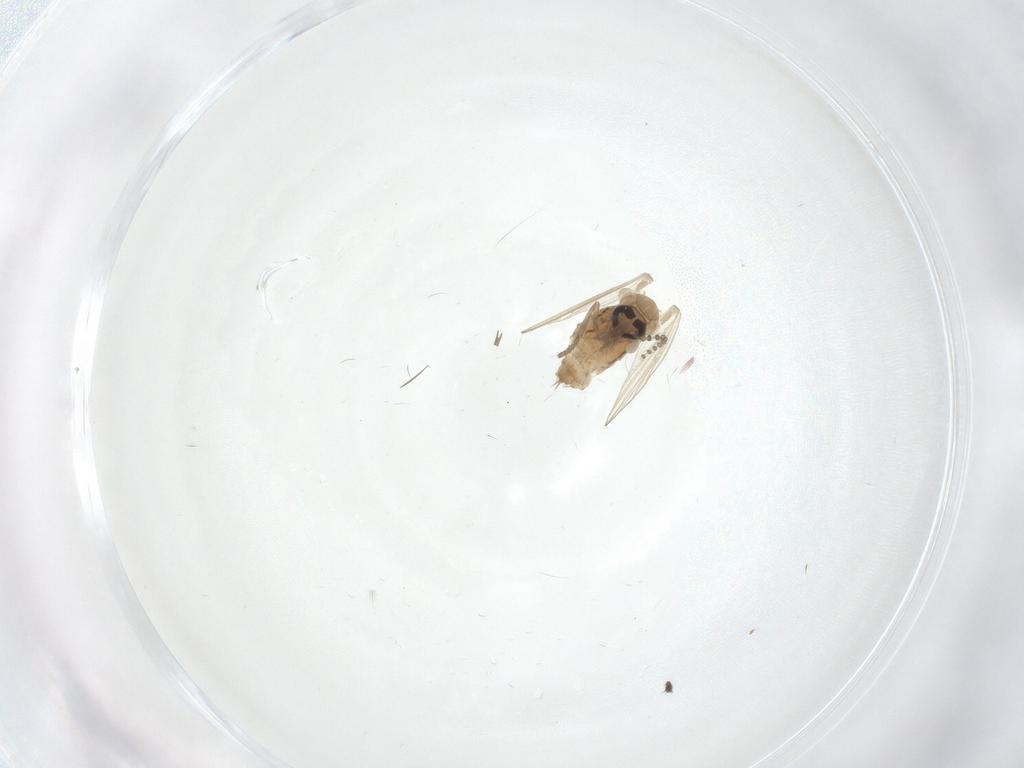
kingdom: Animalia
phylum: Arthropoda
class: Insecta
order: Diptera
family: Psychodidae
